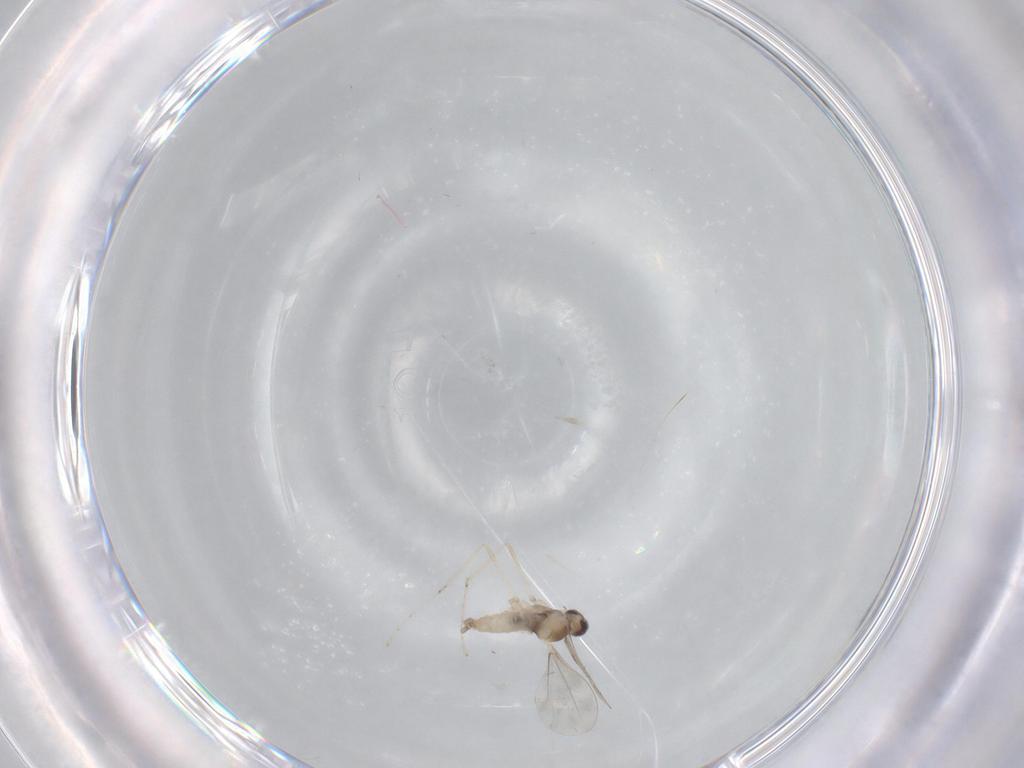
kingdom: Animalia
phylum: Arthropoda
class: Insecta
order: Diptera
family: Cecidomyiidae
